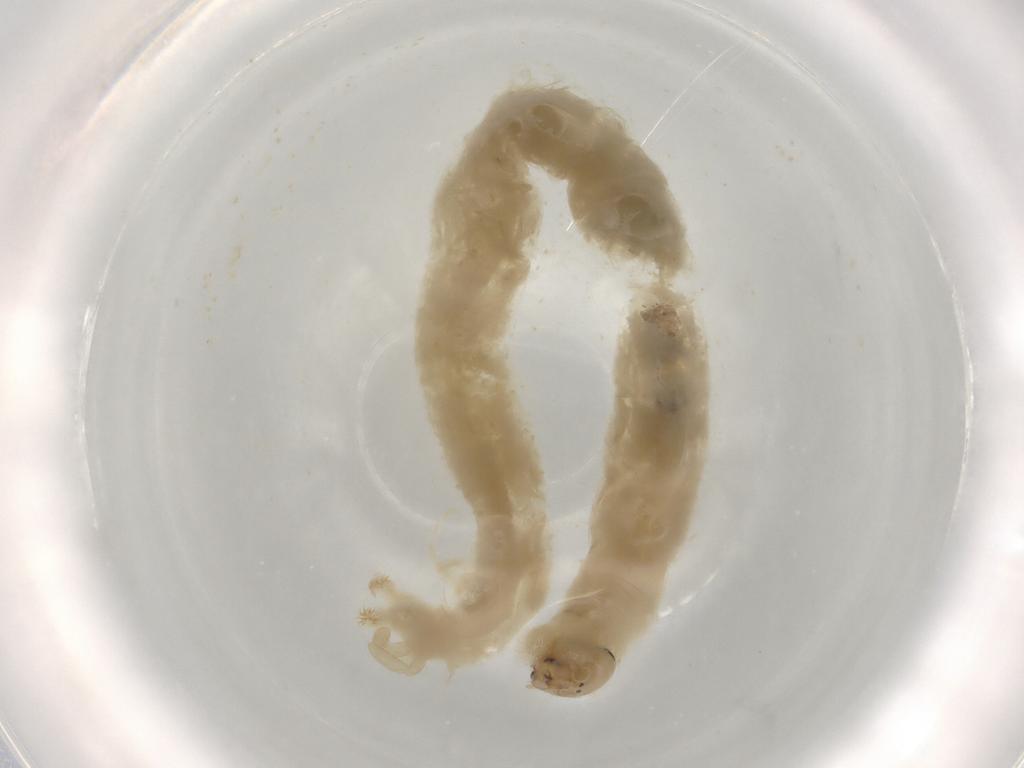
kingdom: Animalia
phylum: Arthropoda
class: Insecta
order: Diptera
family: Chironomidae
